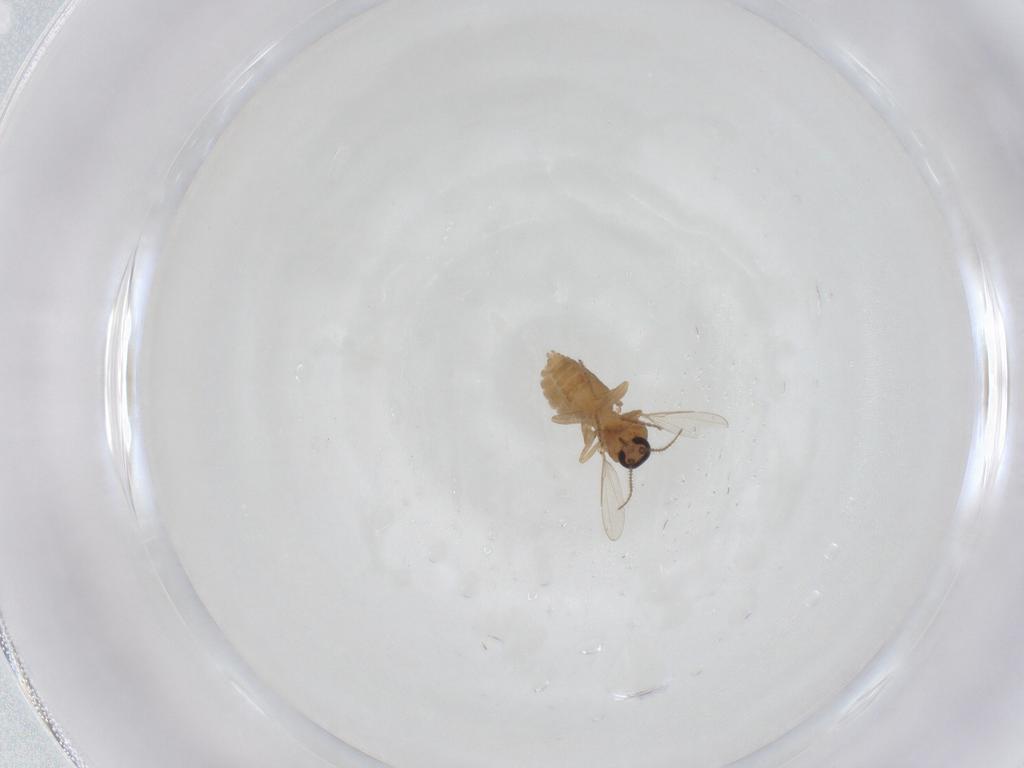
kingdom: Animalia
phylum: Arthropoda
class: Insecta
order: Diptera
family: Ceratopogonidae
